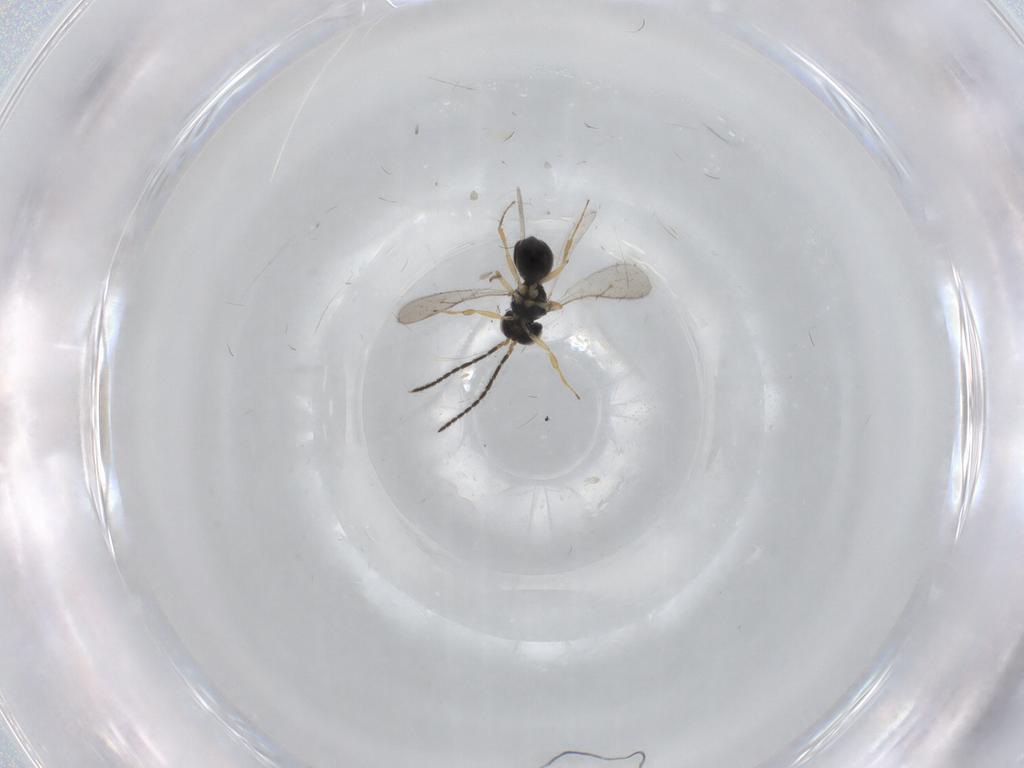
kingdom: Animalia
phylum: Arthropoda
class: Insecta
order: Hymenoptera
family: Scelionidae
